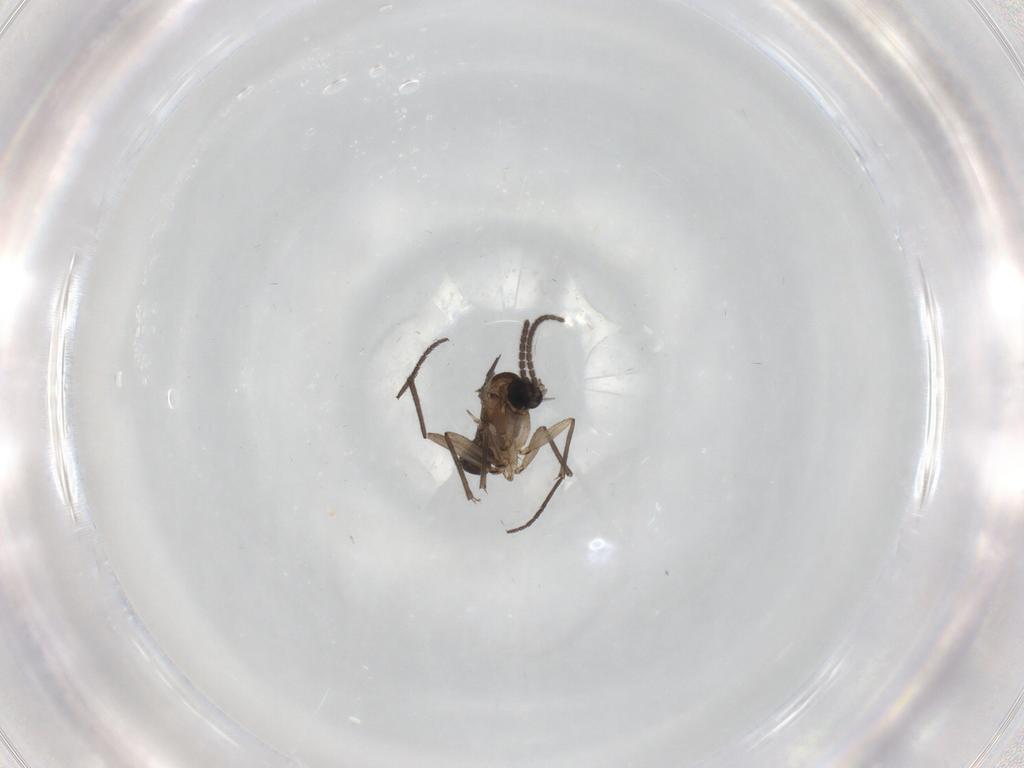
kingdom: Animalia
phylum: Arthropoda
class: Insecta
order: Diptera
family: Sciaridae
